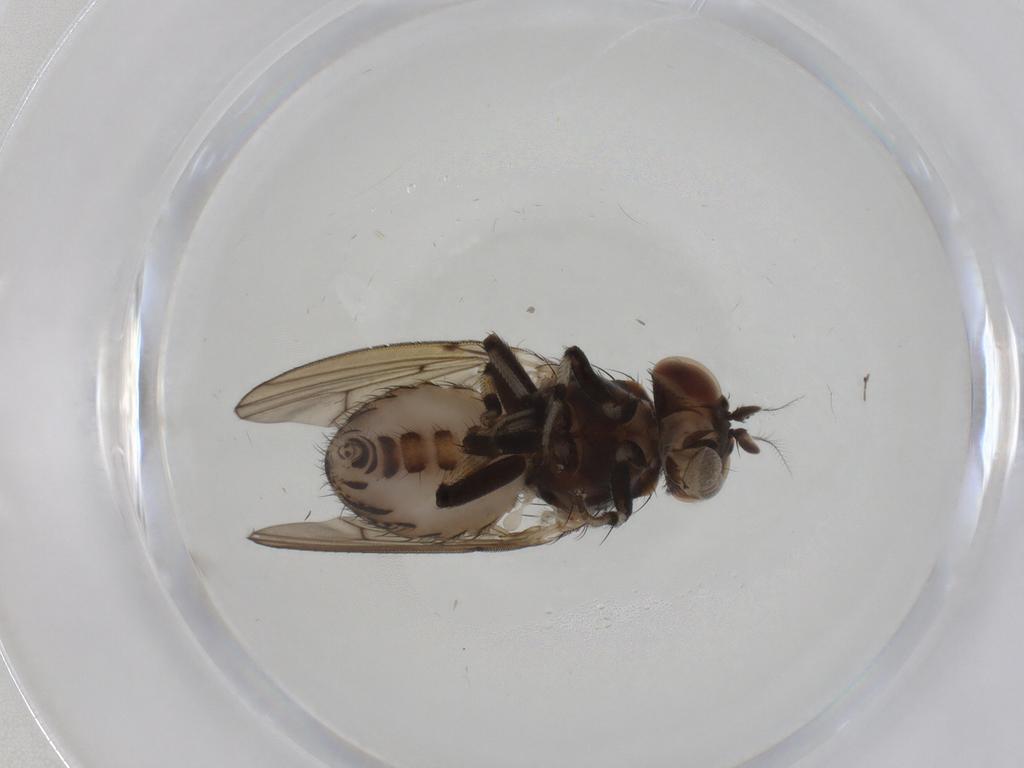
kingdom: Animalia
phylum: Arthropoda
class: Insecta
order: Diptera
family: Lauxaniidae
